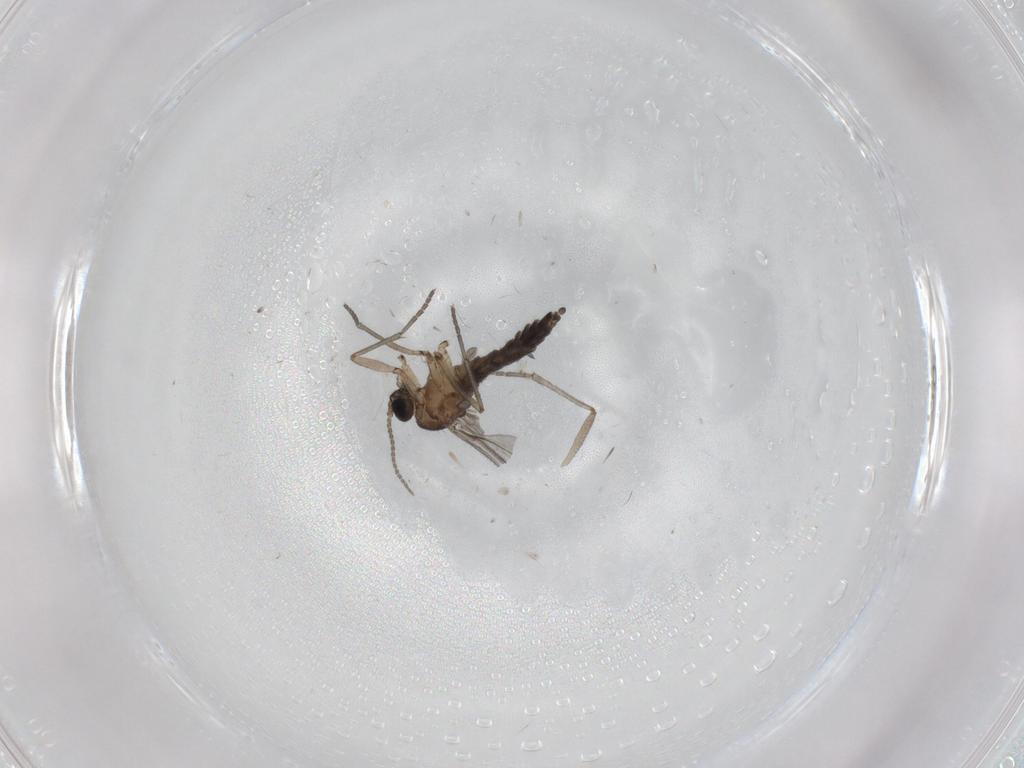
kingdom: Animalia
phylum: Arthropoda
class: Insecta
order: Diptera
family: Sciaridae
